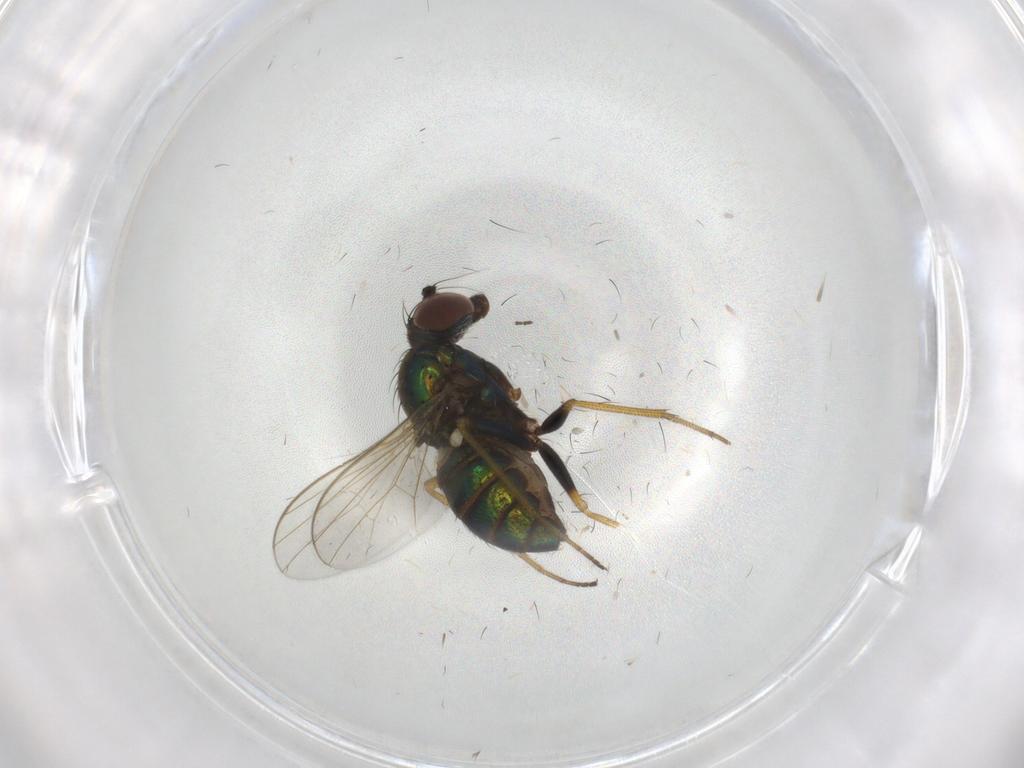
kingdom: Animalia
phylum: Arthropoda
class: Insecta
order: Diptera
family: Dolichopodidae
